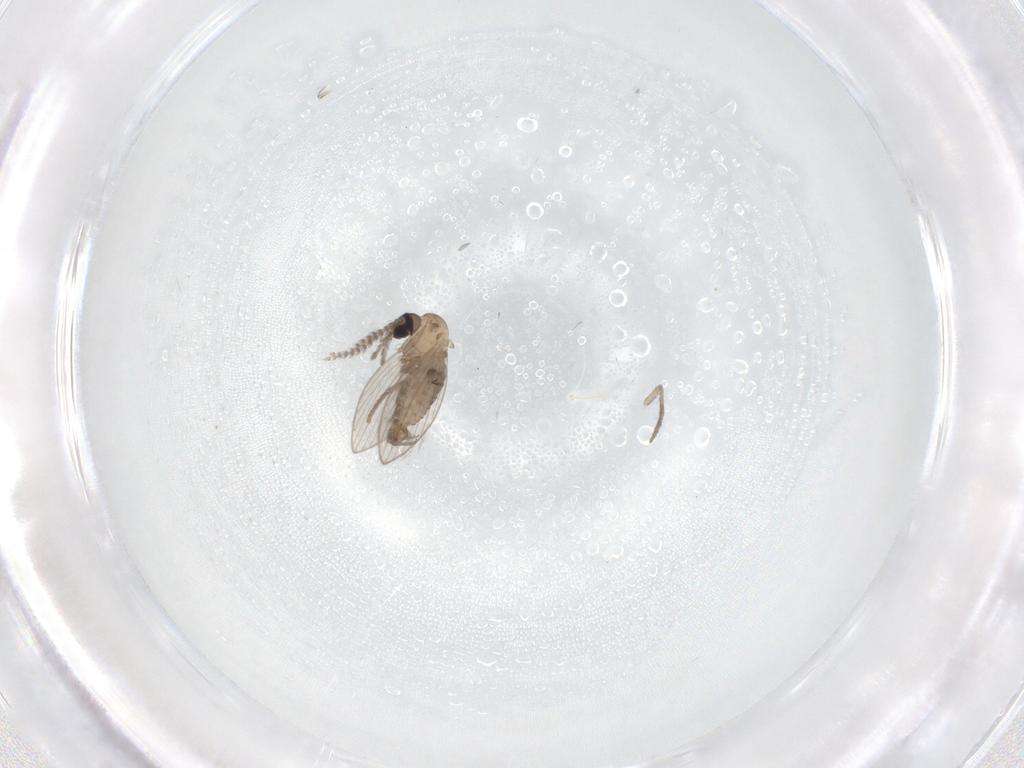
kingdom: Animalia
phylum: Arthropoda
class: Insecta
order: Diptera
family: Psychodidae
